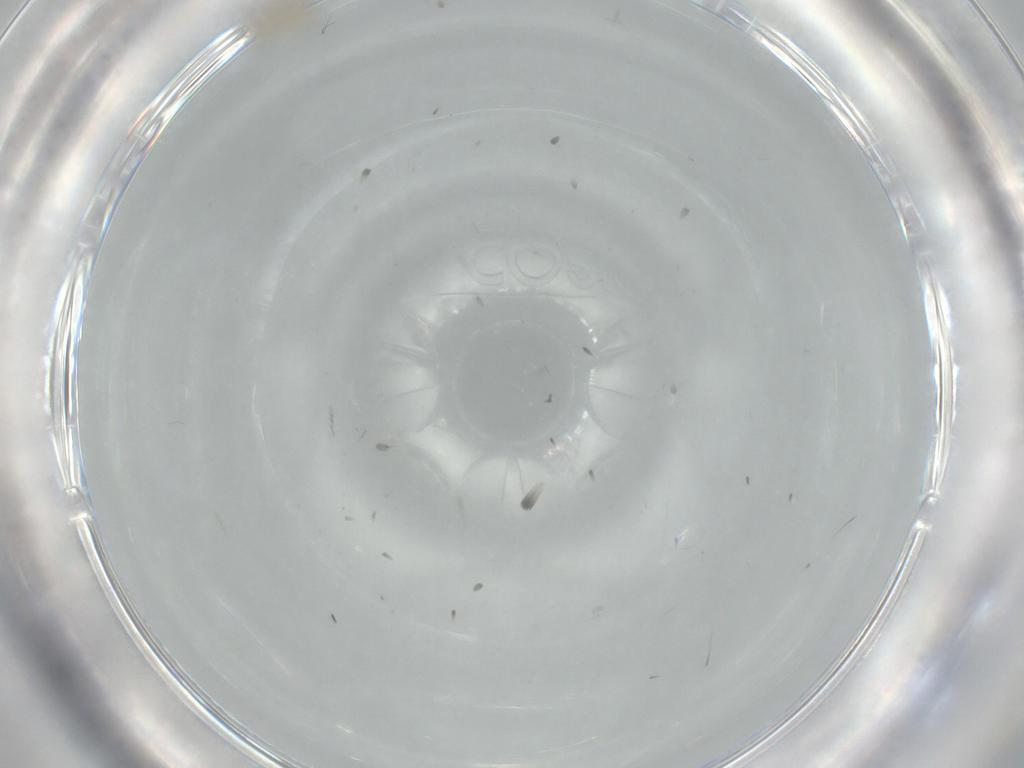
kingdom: Animalia
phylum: Arthropoda
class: Insecta
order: Diptera
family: Cecidomyiidae
